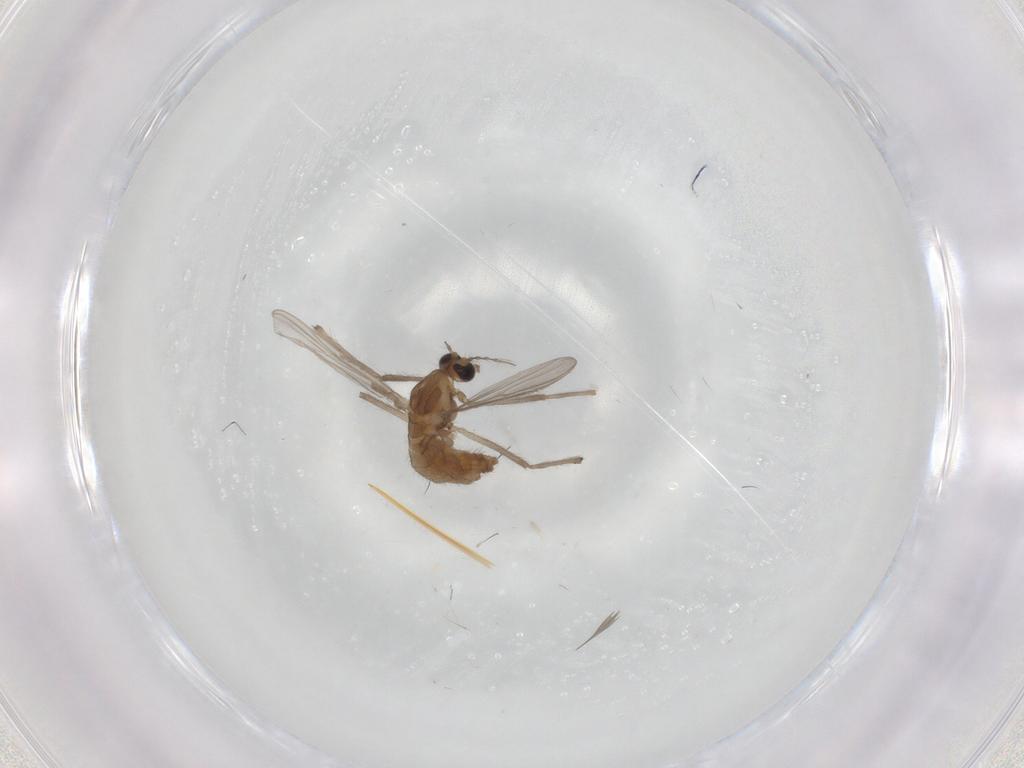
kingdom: Animalia
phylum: Arthropoda
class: Insecta
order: Diptera
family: Chironomidae
